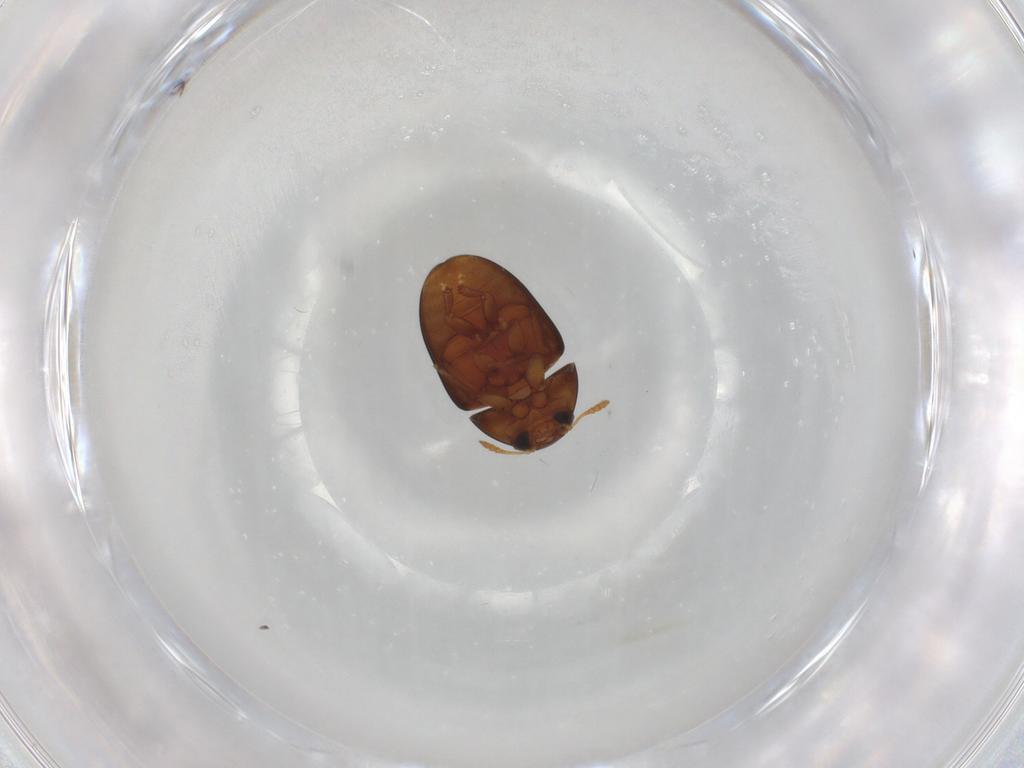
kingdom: Animalia
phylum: Arthropoda
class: Insecta
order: Coleoptera
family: Phalacridae
